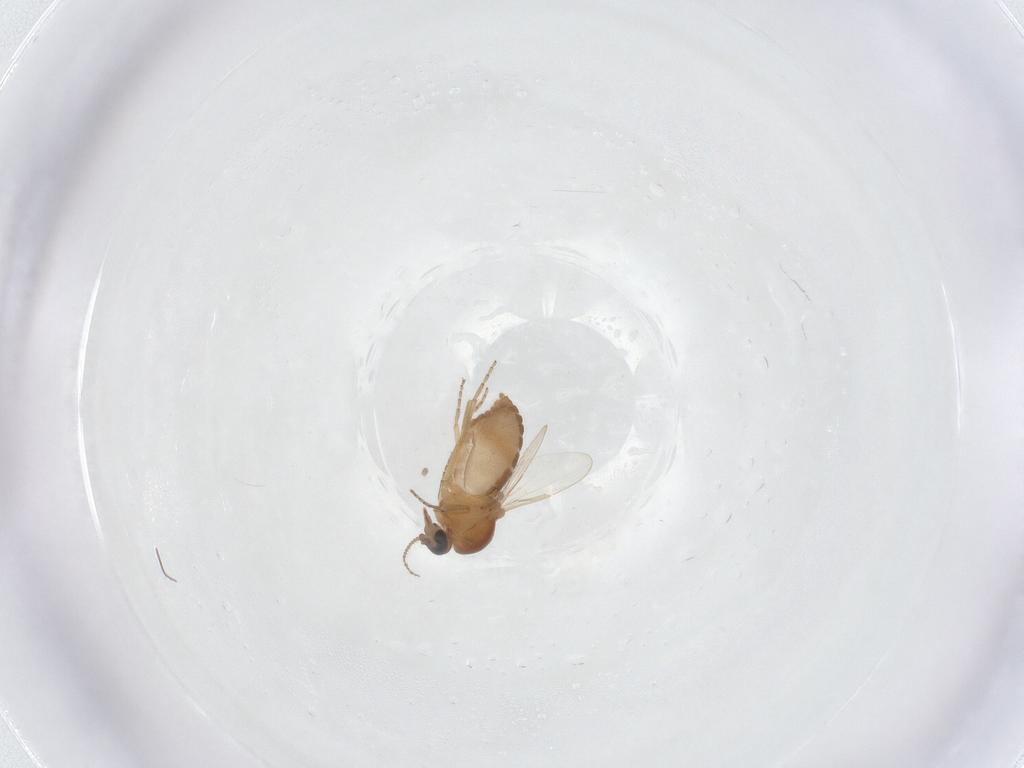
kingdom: Animalia
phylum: Arthropoda
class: Insecta
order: Diptera
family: Ceratopogonidae
